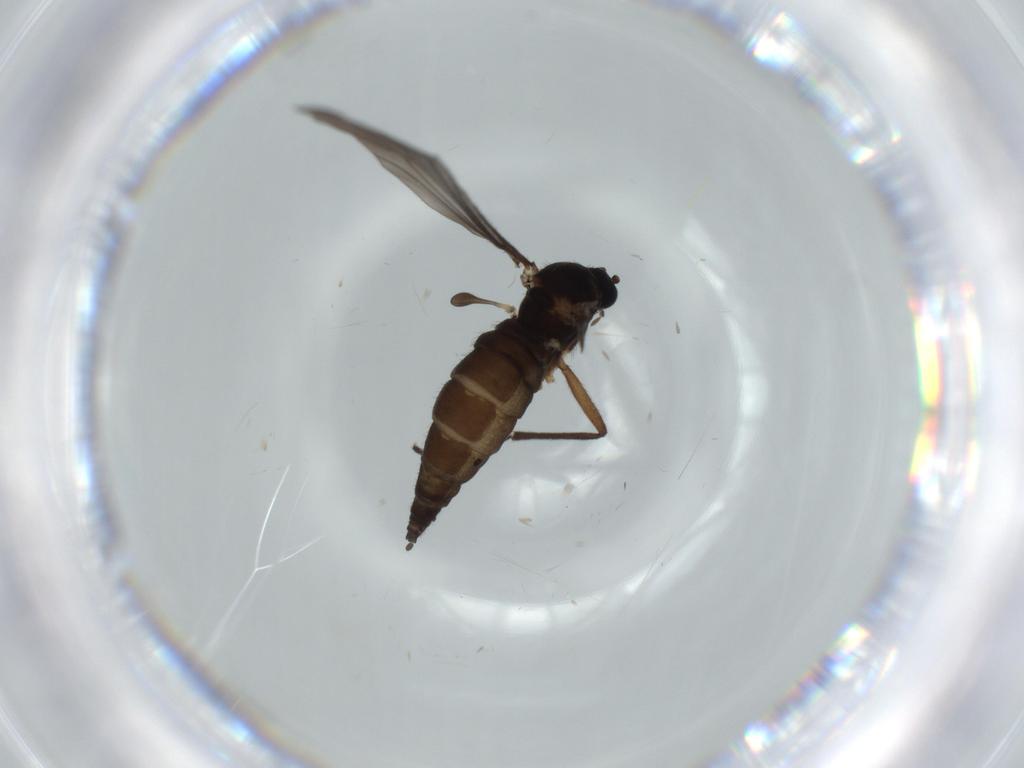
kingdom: Animalia
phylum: Arthropoda
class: Insecta
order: Diptera
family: Sciaridae
